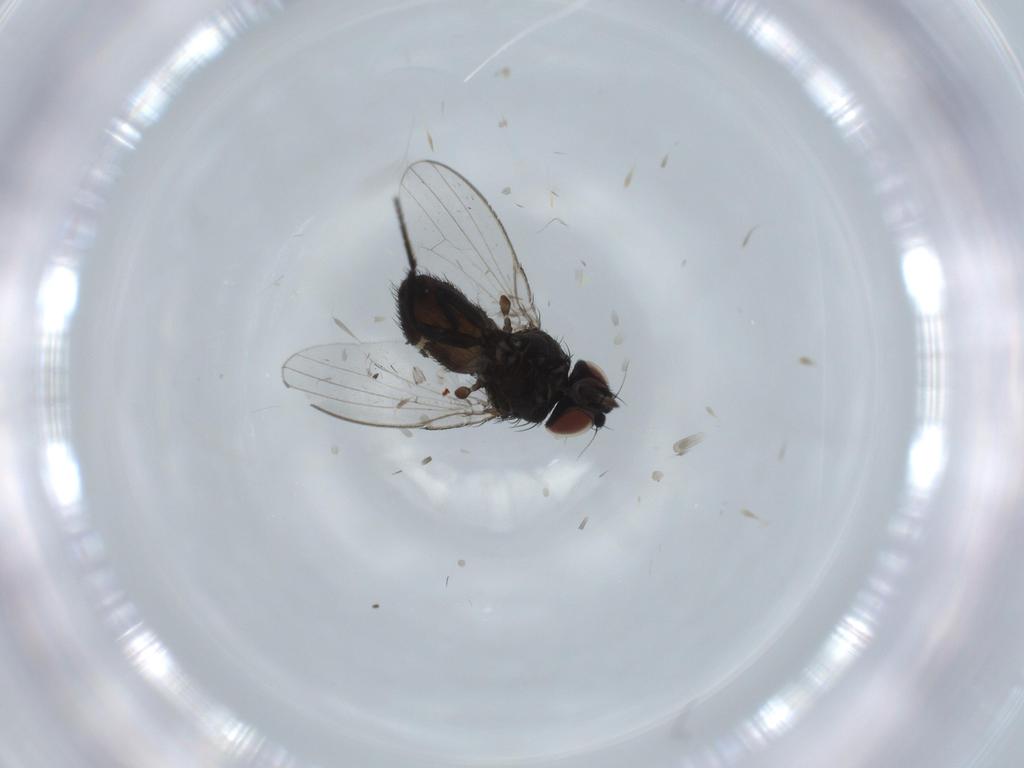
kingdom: Animalia
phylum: Arthropoda
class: Insecta
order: Diptera
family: Milichiidae
